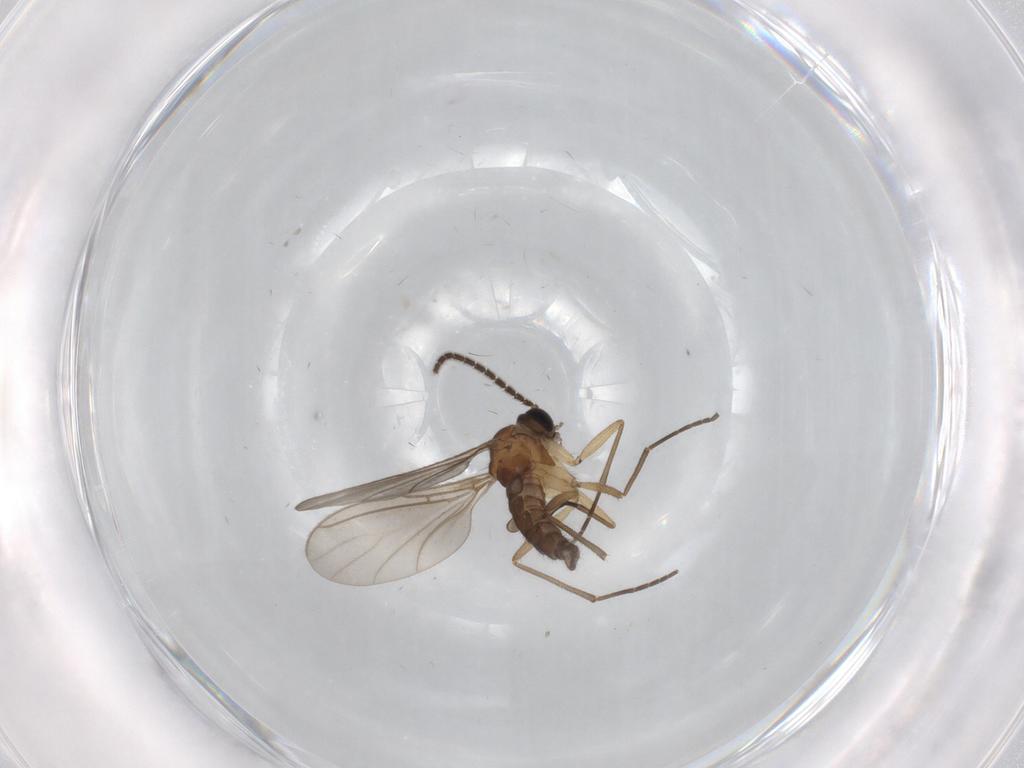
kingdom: Animalia
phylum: Arthropoda
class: Insecta
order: Diptera
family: Sciaridae
